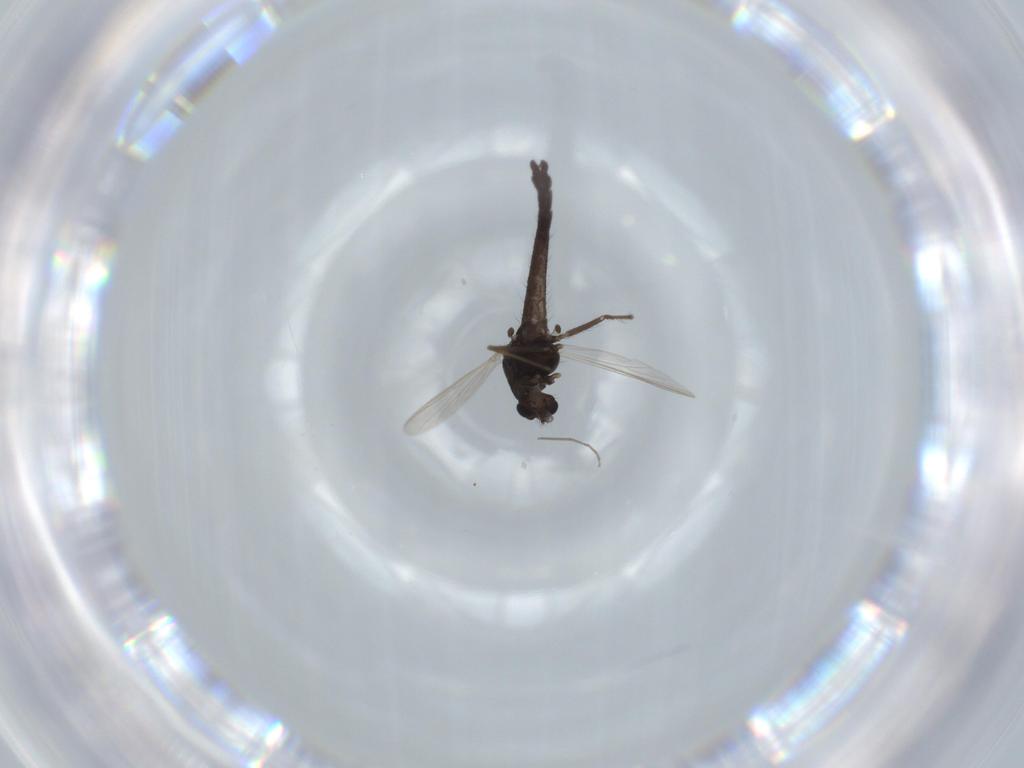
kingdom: Animalia
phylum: Arthropoda
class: Insecta
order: Diptera
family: Chironomidae
